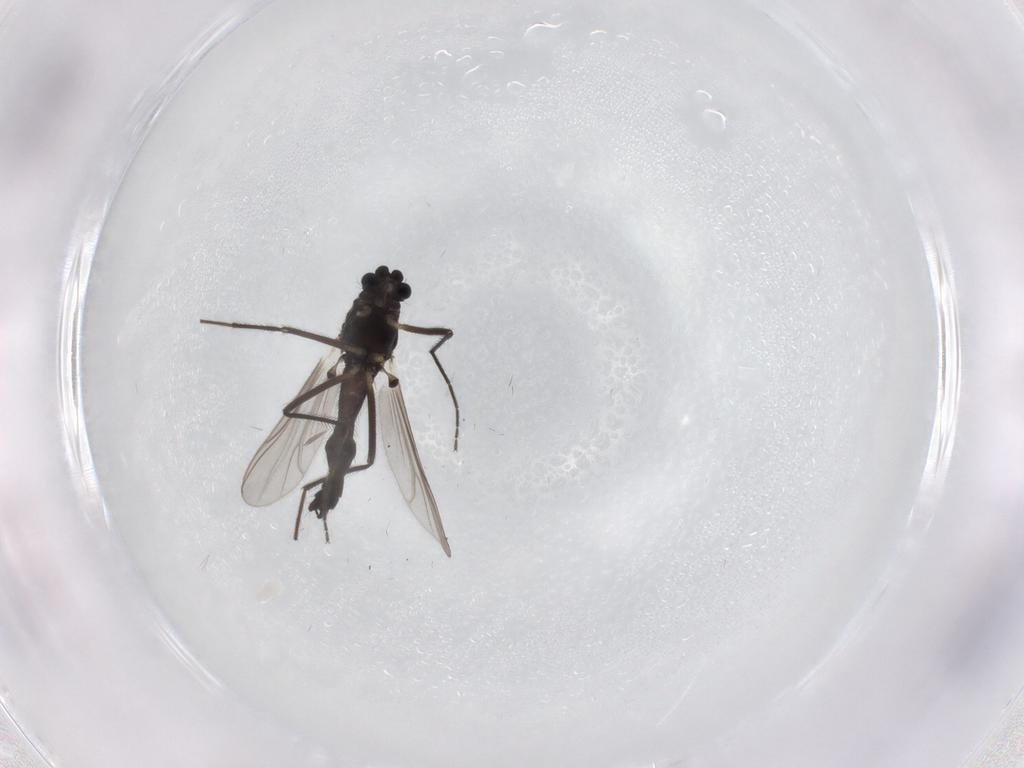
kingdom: Animalia
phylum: Arthropoda
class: Insecta
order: Diptera
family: Chironomidae
